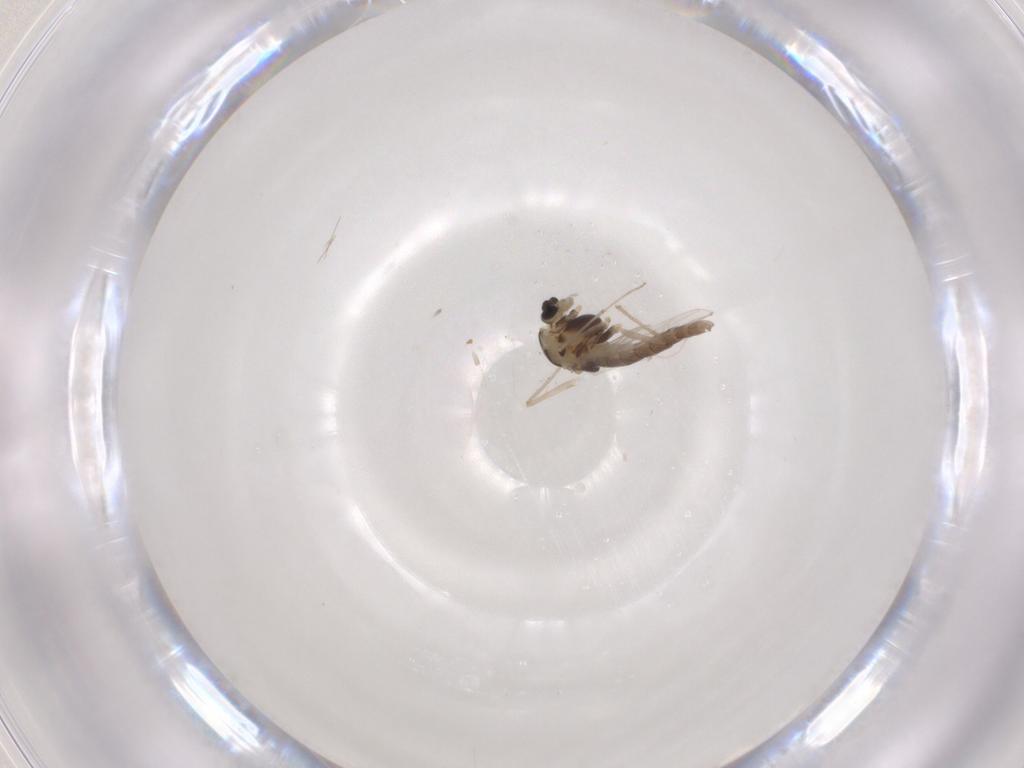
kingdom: Animalia
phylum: Arthropoda
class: Insecta
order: Diptera
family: Chironomidae
